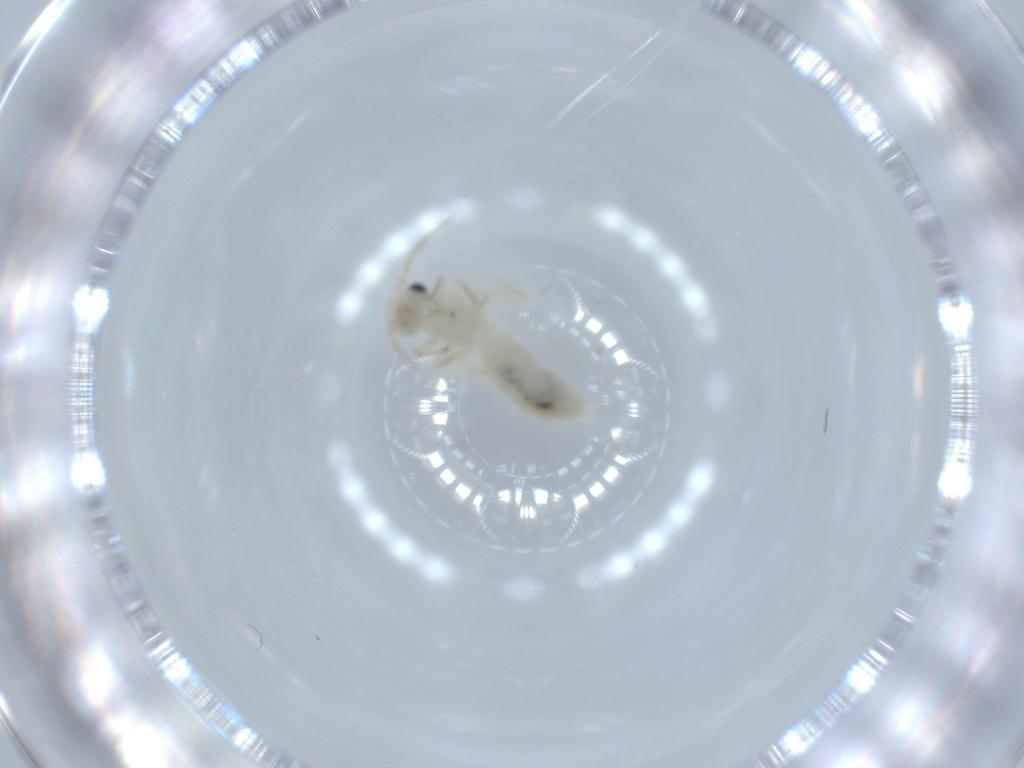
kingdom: Animalia
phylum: Arthropoda
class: Insecta
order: Psocodea
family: Caeciliusidae
